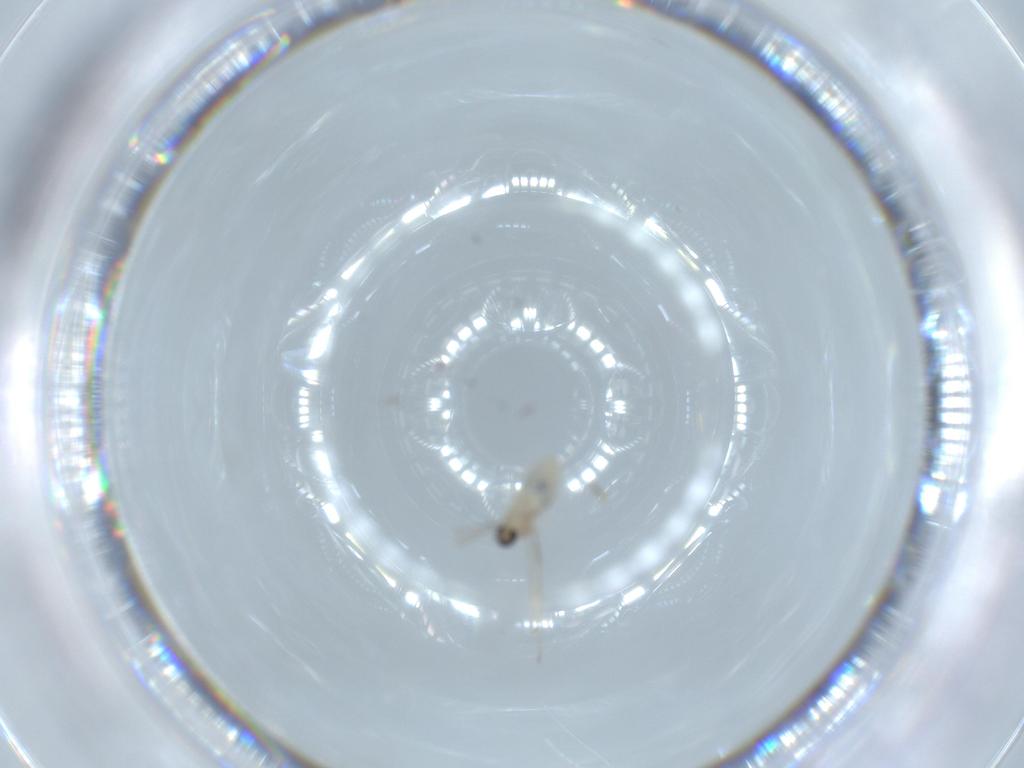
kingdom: Animalia
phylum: Arthropoda
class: Insecta
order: Diptera
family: Cecidomyiidae
